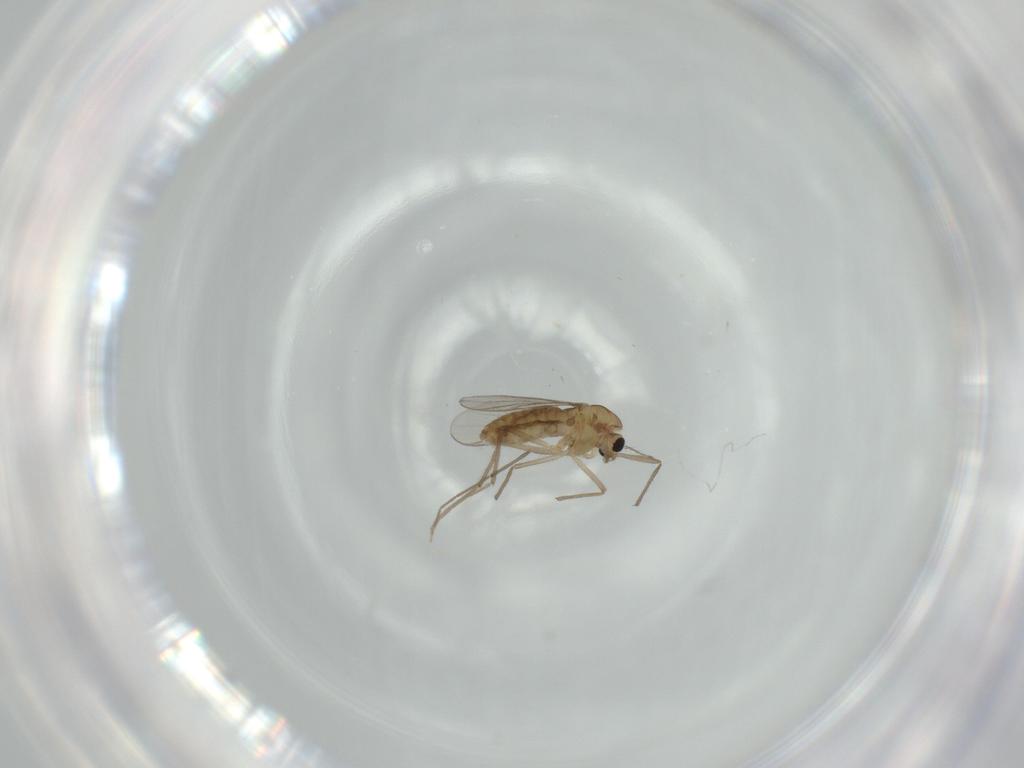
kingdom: Animalia
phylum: Arthropoda
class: Insecta
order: Diptera
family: Chironomidae
